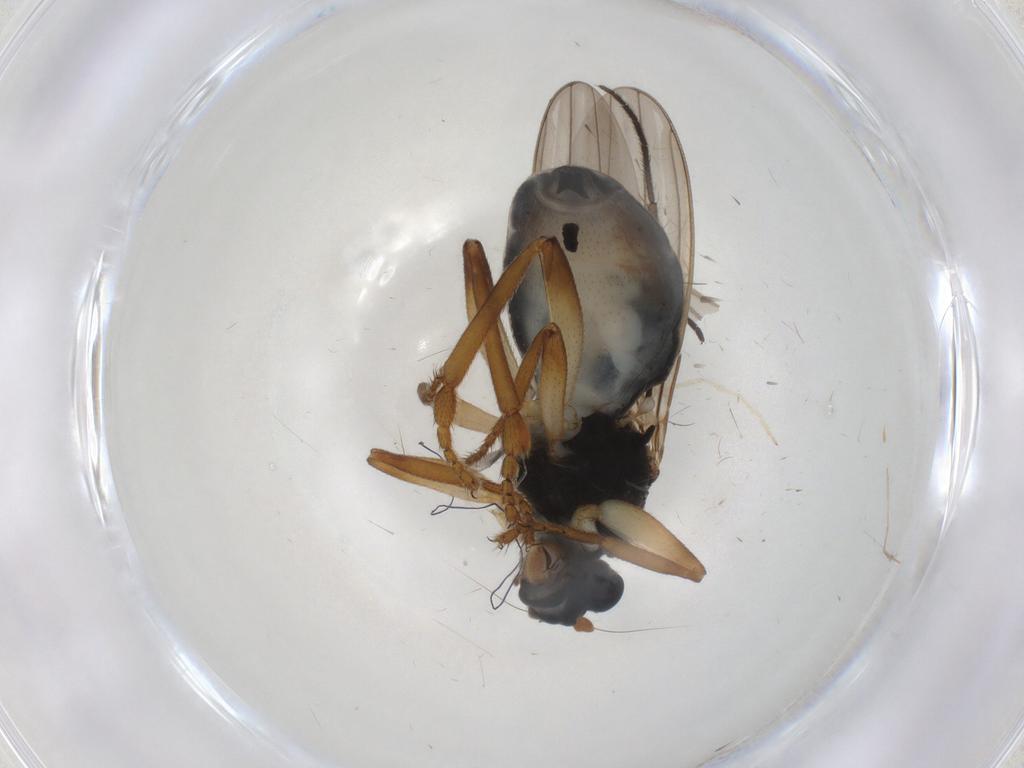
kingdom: Animalia
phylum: Arthropoda
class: Insecta
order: Diptera
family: Sphaeroceridae
